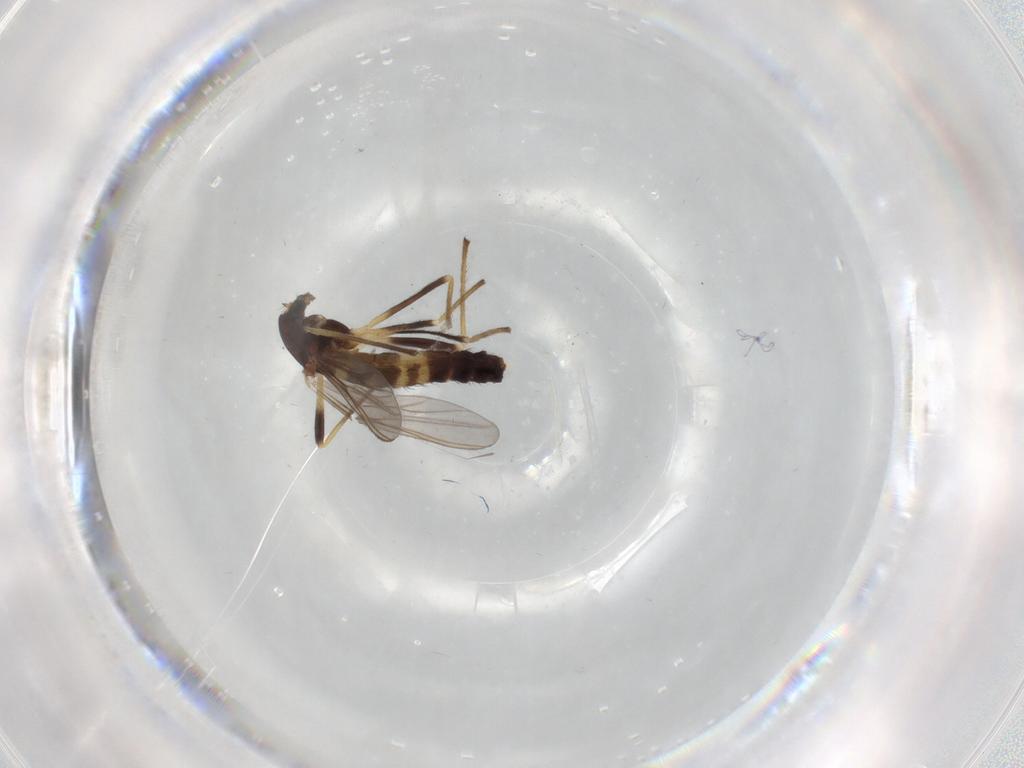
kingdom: Animalia
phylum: Arthropoda
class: Insecta
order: Diptera
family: Chironomidae
